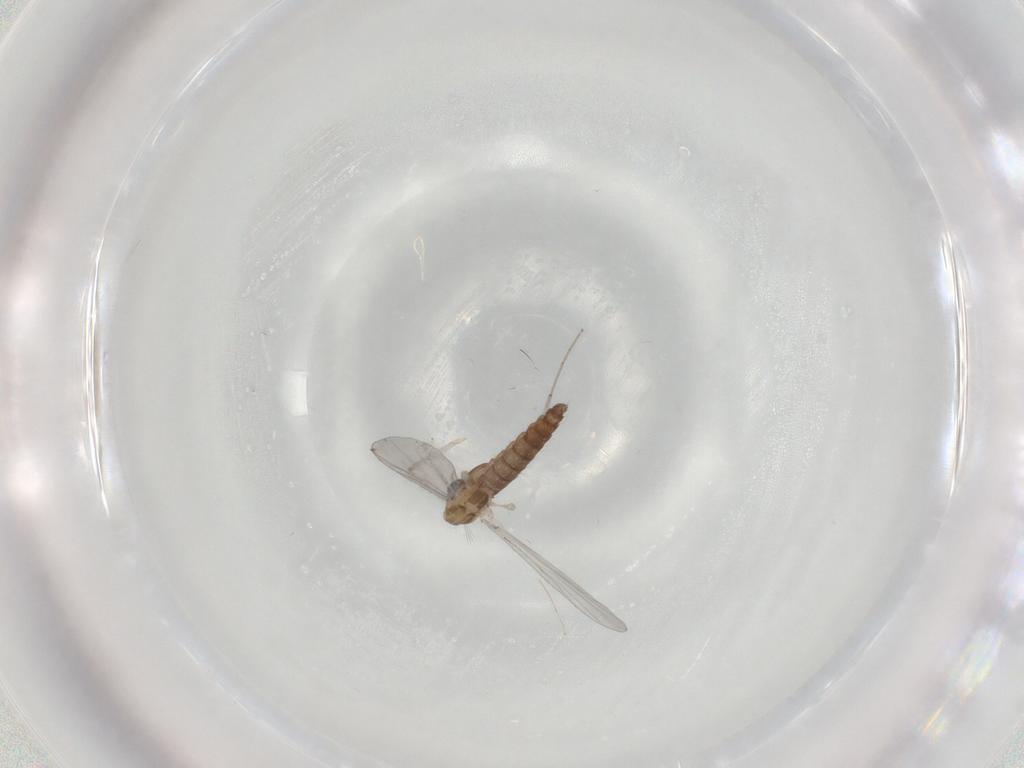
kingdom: Animalia
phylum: Arthropoda
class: Insecta
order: Diptera
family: Chironomidae
